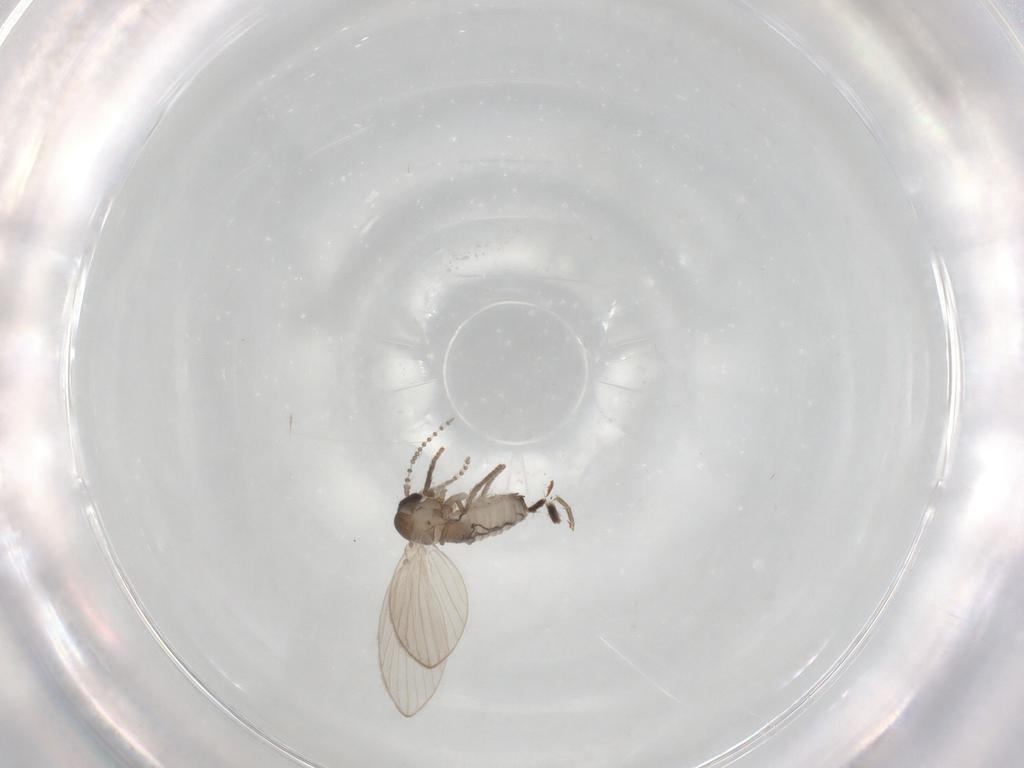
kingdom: Animalia
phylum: Arthropoda
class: Insecta
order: Diptera
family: Psychodidae
